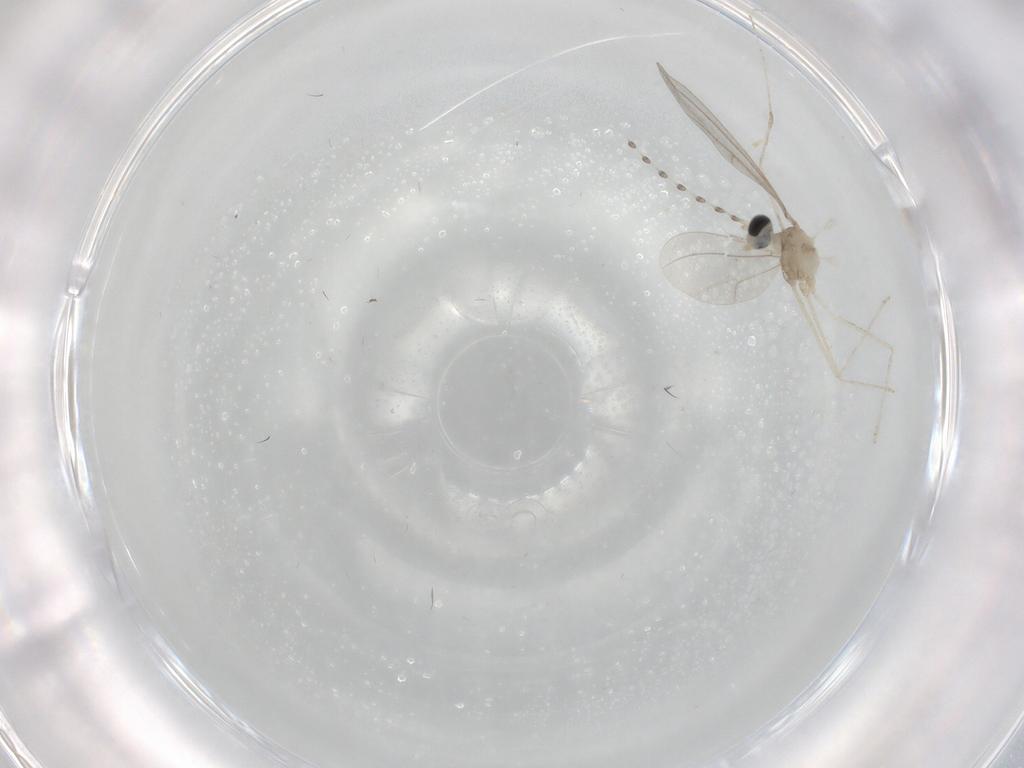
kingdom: Animalia
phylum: Arthropoda
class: Insecta
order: Diptera
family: Cecidomyiidae
